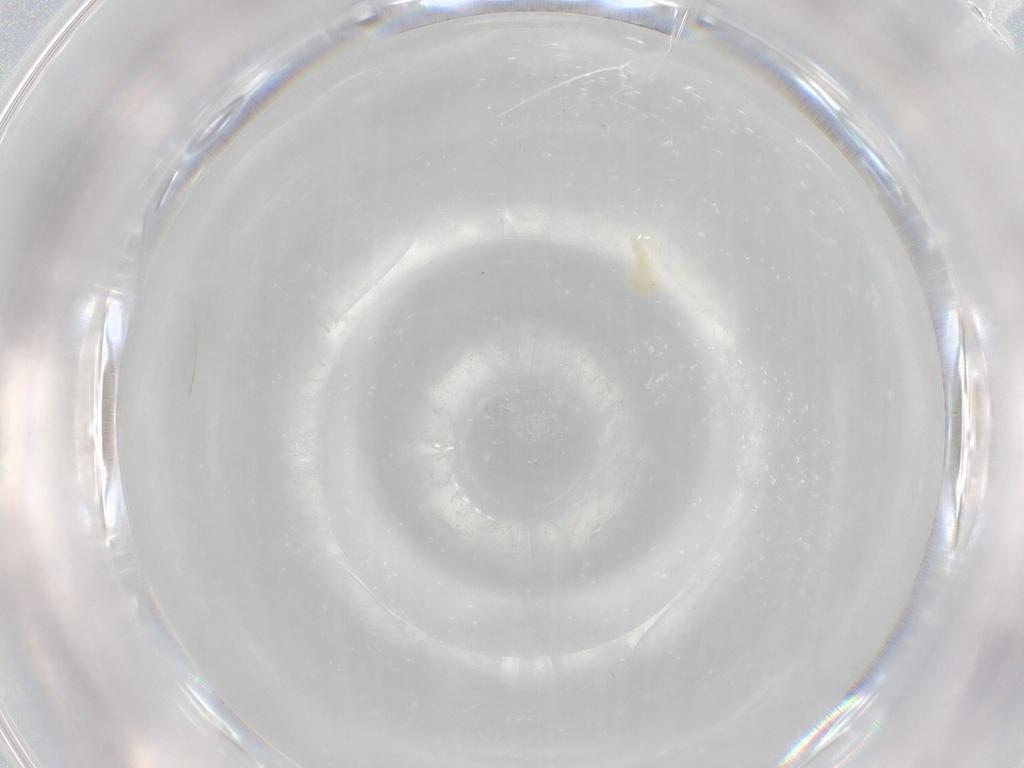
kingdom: Animalia
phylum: Arthropoda
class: Insecta
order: Hemiptera
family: Aleyrodidae
